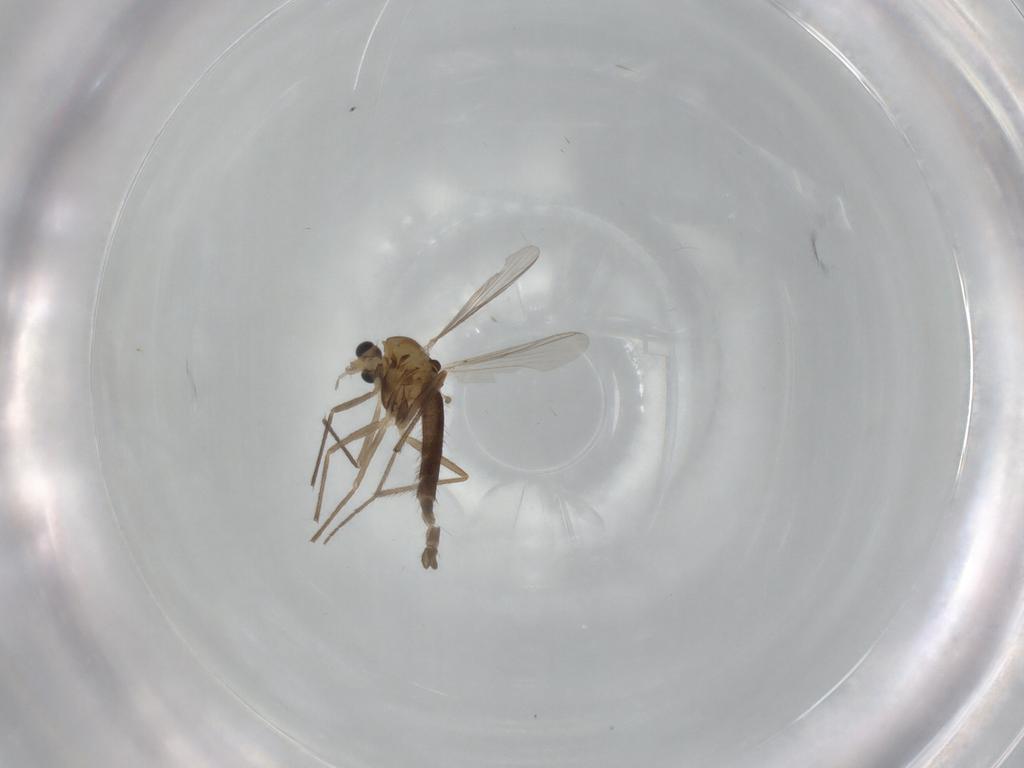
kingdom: Animalia
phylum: Arthropoda
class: Insecta
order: Diptera
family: Chironomidae
